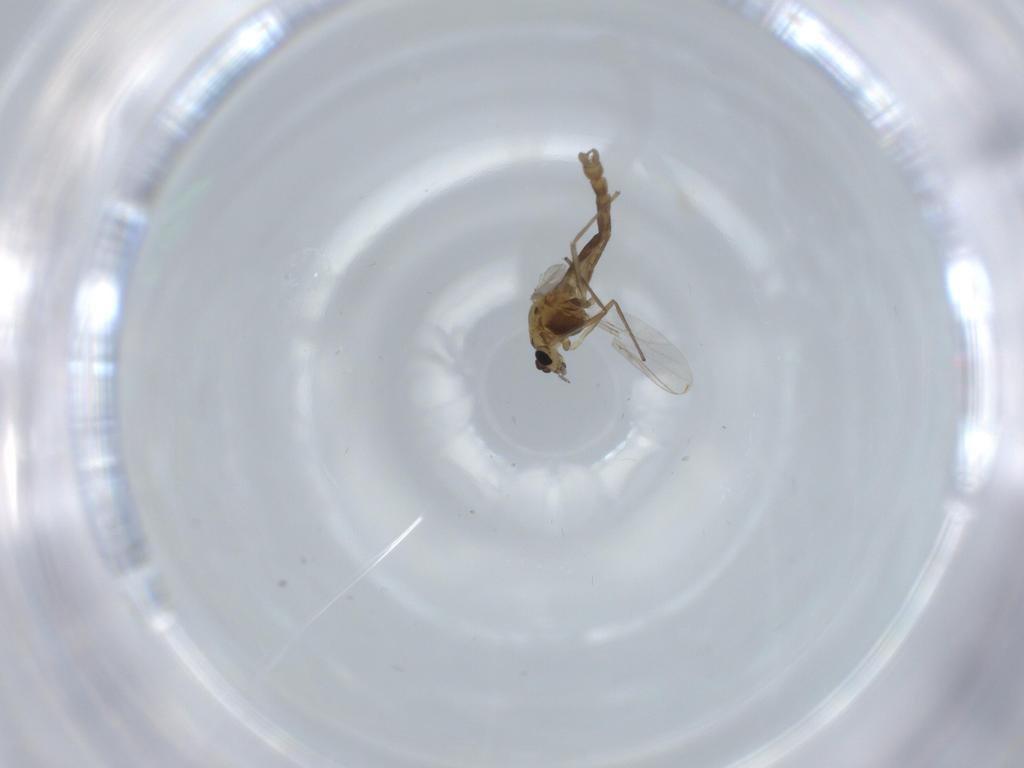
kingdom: Animalia
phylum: Arthropoda
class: Insecta
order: Diptera
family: Chironomidae
